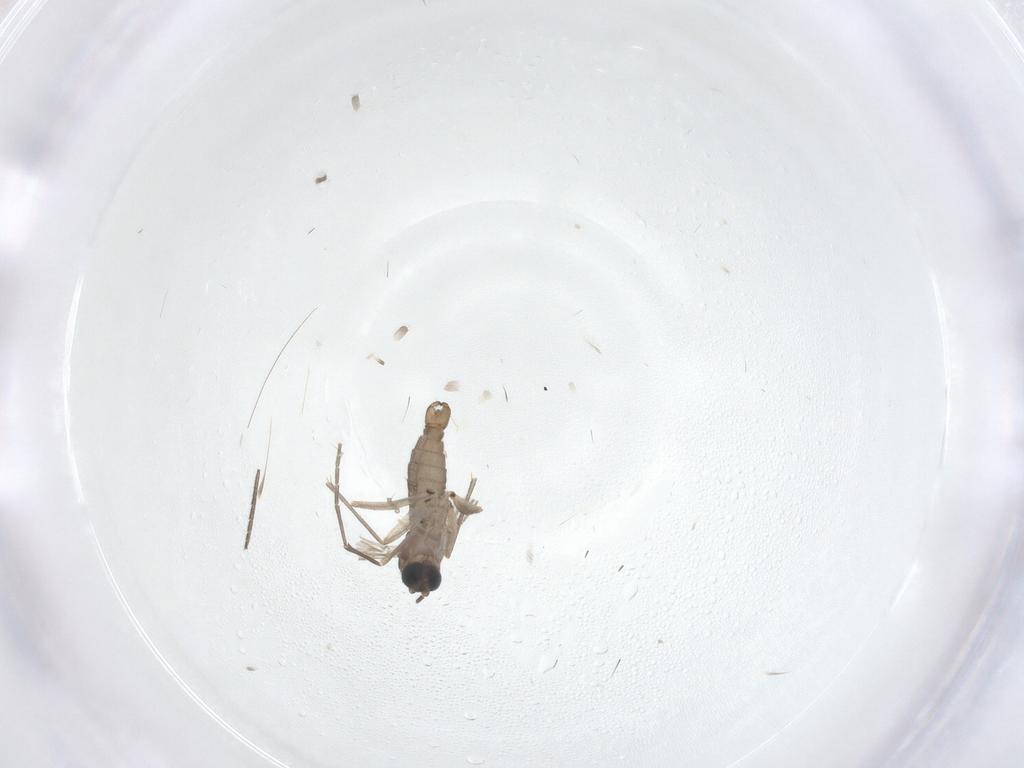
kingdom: Animalia
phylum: Arthropoda
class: Insecta
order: Diptera
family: Sciaridae
